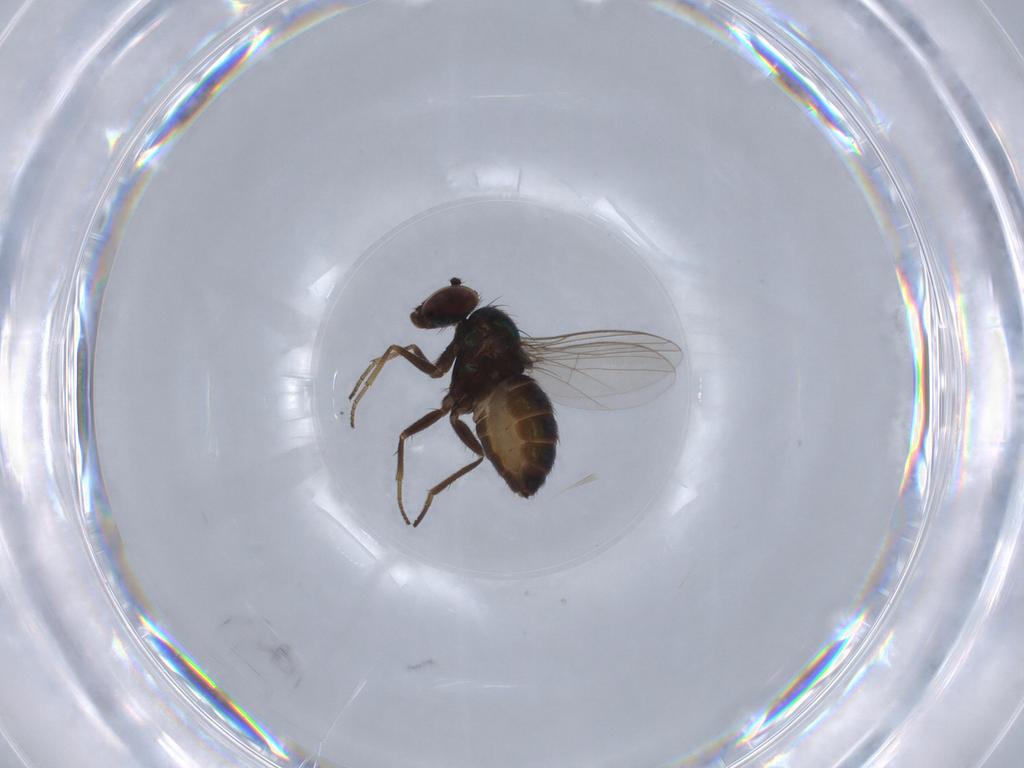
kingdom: Animalia
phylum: Arthropoda
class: Insecta
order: Diptera
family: Dolichopodidae
